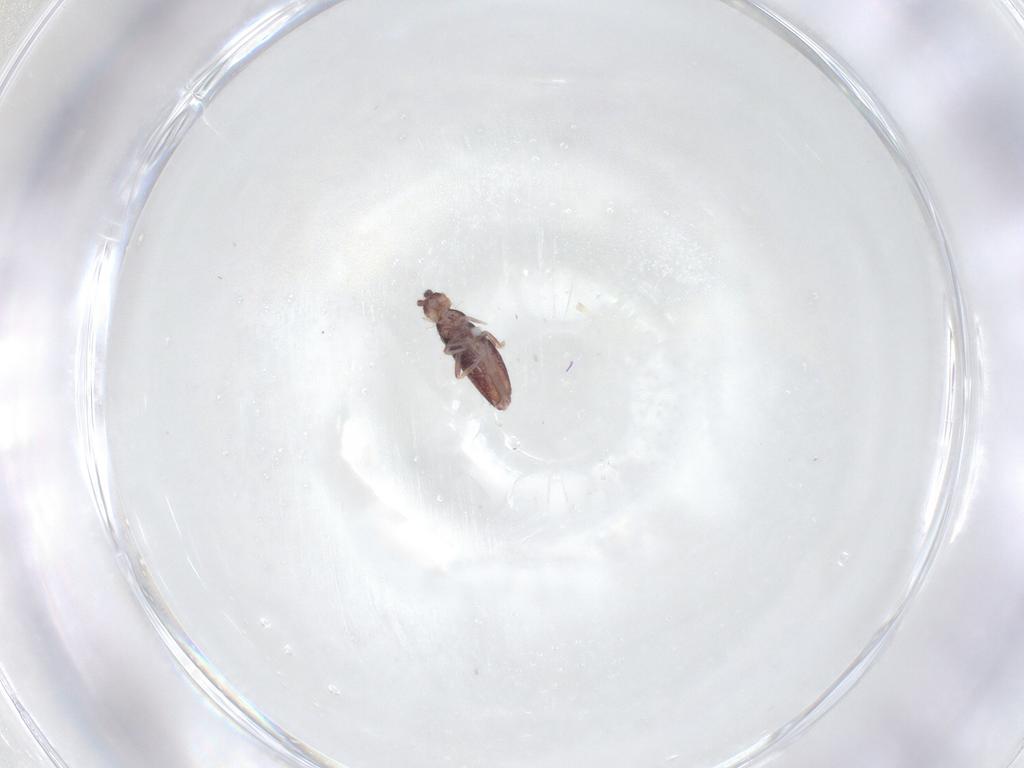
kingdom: Animalia
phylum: Arthropoda
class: Collembola
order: Entomobryomorpha
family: Entomobryidae
